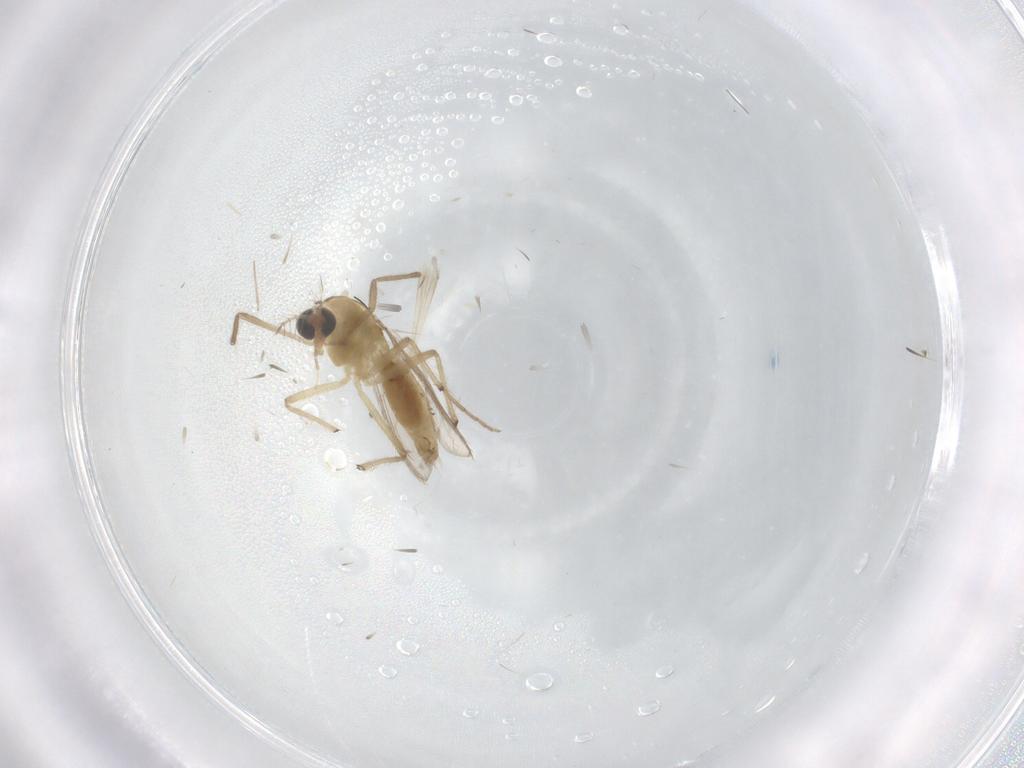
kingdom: Animalia
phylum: Arthropoda
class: Insecta
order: Diptera
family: Chironomidae
